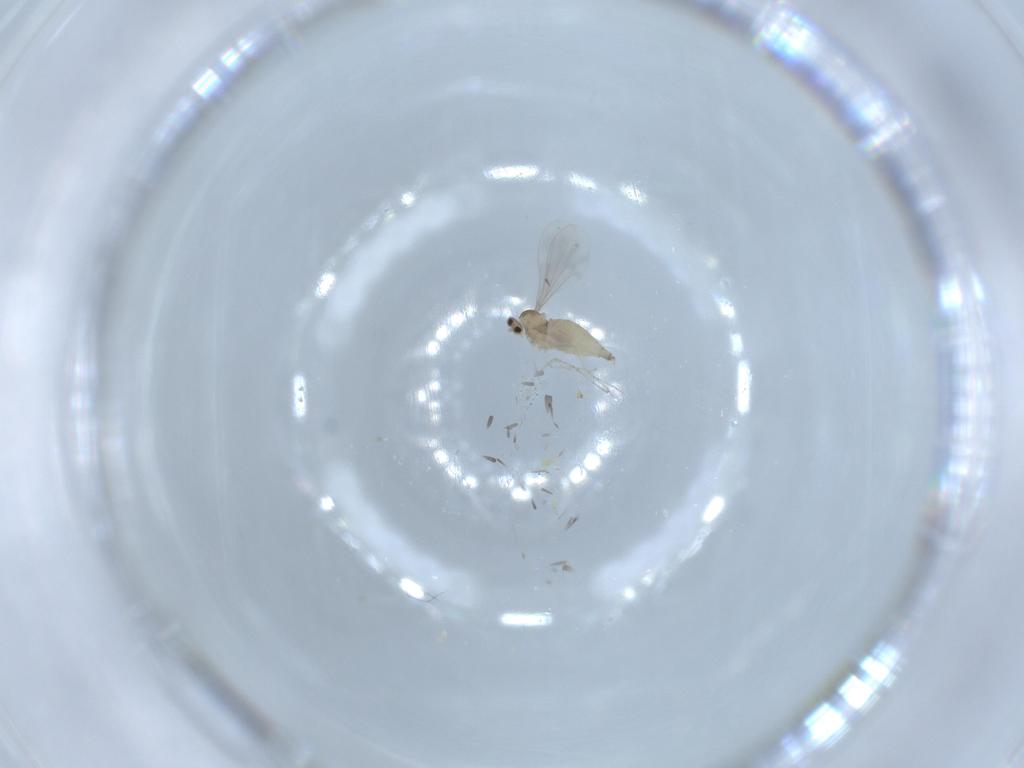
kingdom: Animalia
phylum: Arthropoda
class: Insecta
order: Diptera
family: Cecidomyiidae
